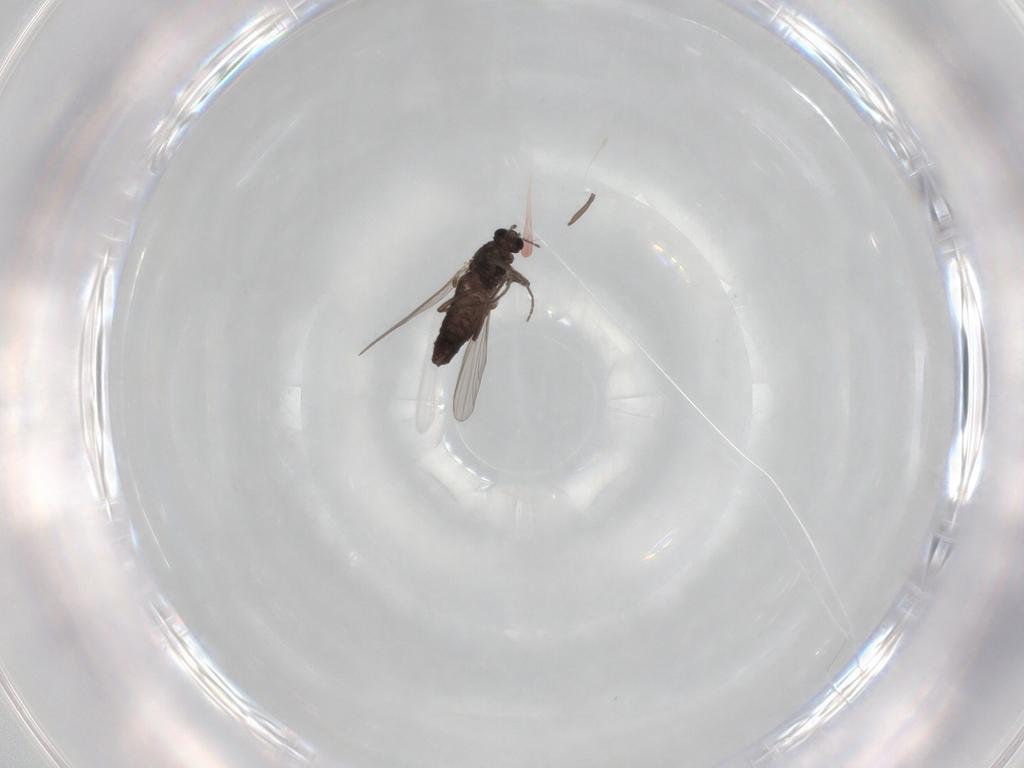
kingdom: Animalia
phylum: Arthropoda
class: Insecta
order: Diptera
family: Chironomidae
